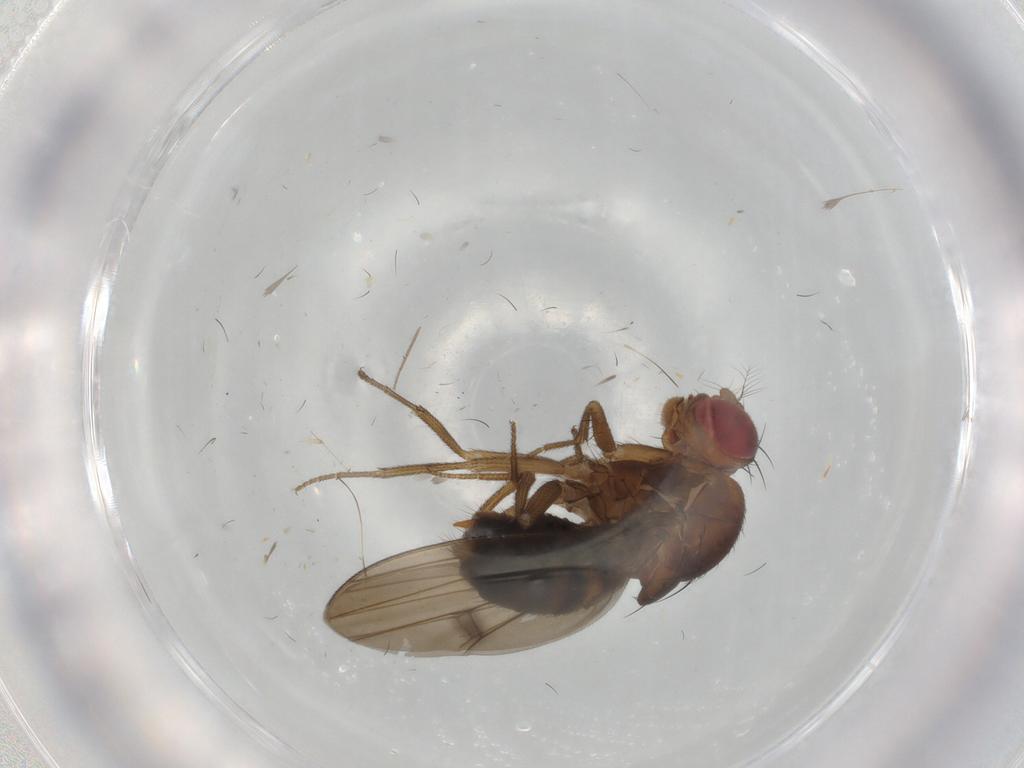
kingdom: Animalia
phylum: Arthropoda
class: Insecta
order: Diptera
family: Drosophilidae
